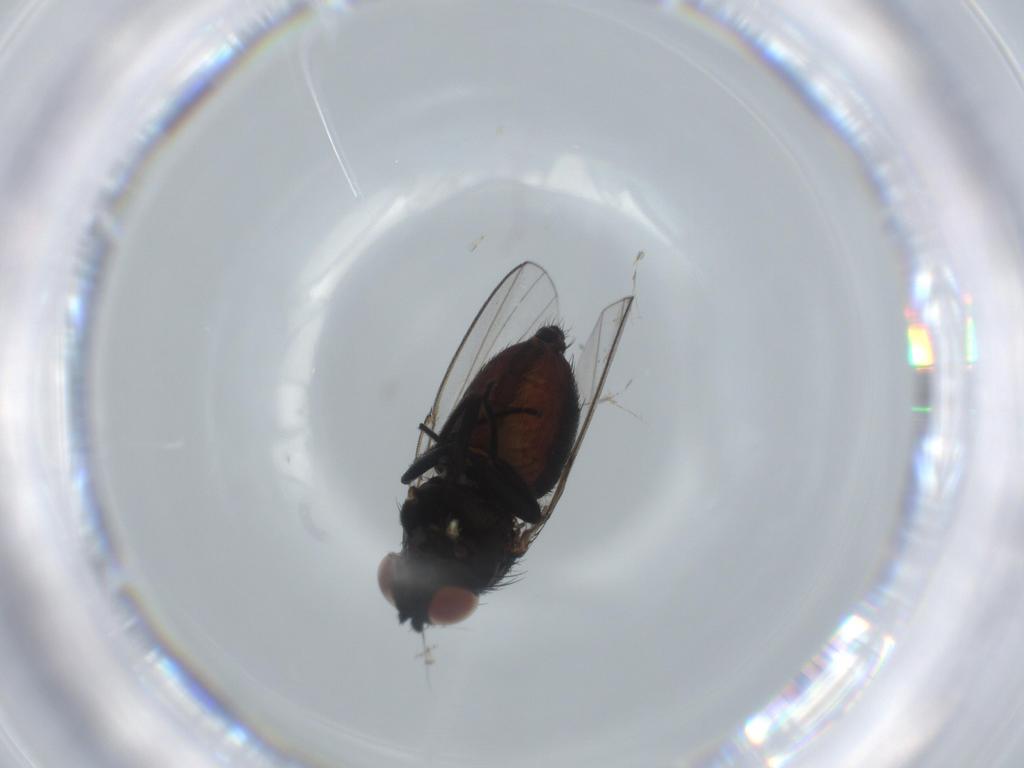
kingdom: Animalia
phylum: Arthropoda
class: Insecta
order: Diptera
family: Milichiidae
